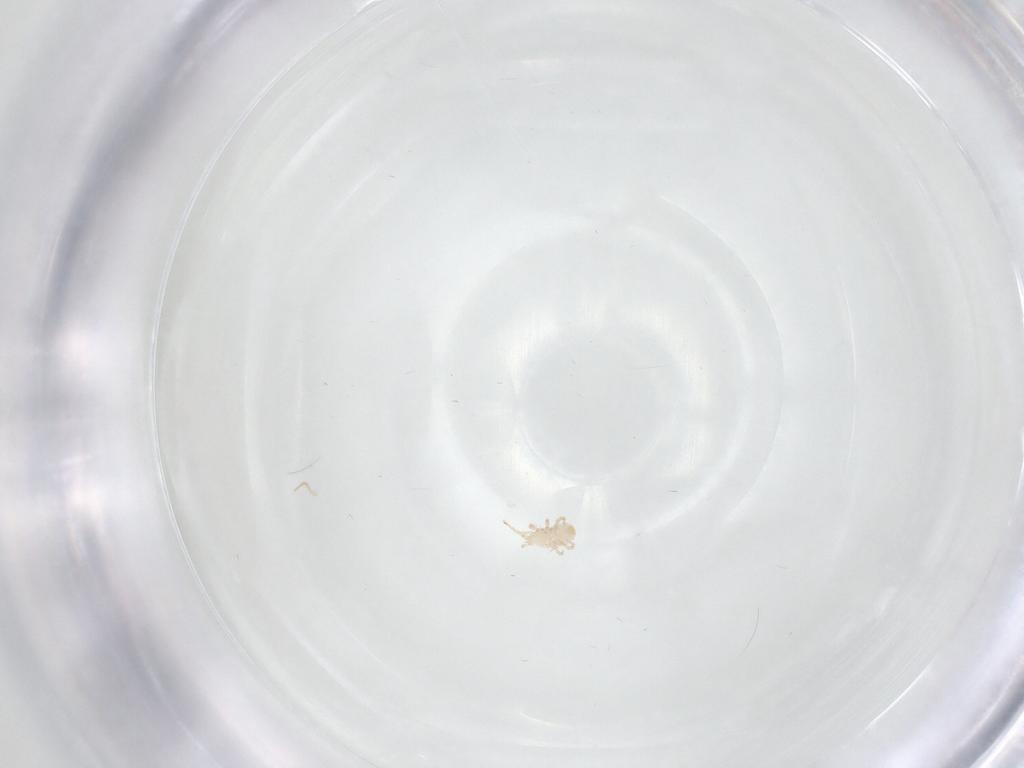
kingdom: Animalia
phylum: Arthropoda
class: Arachnida
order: Mesostigmata
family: Ascidae
